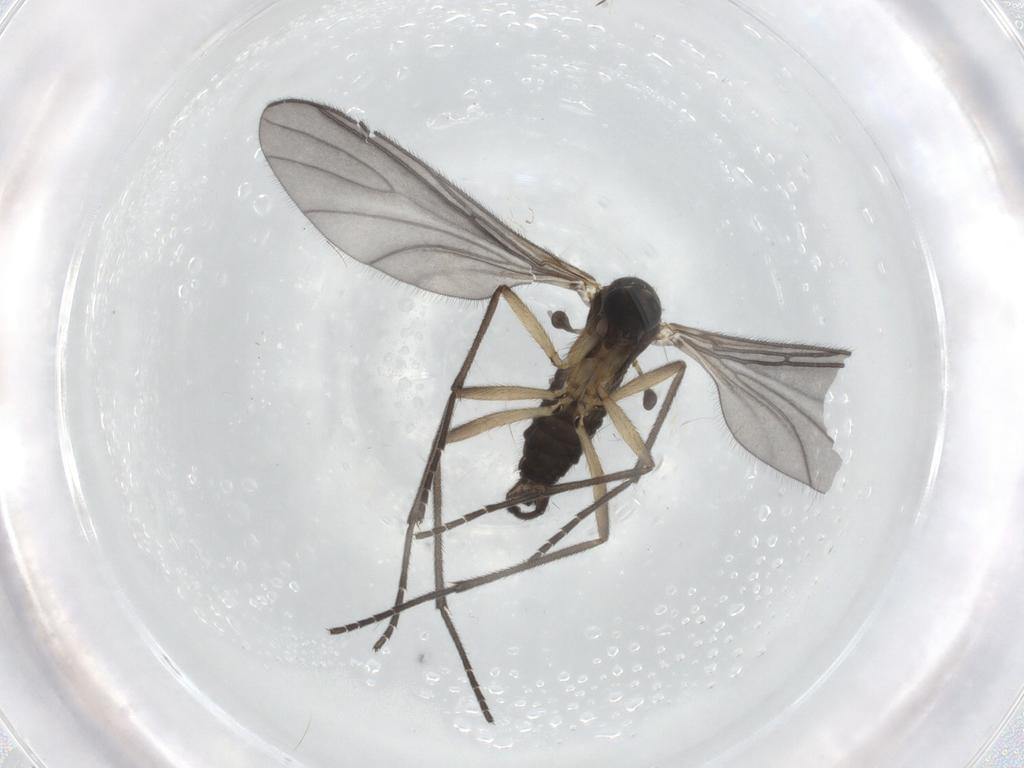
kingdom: Animalia
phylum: Arthropoda
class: Insecta
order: Diptera
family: Sciaridae
